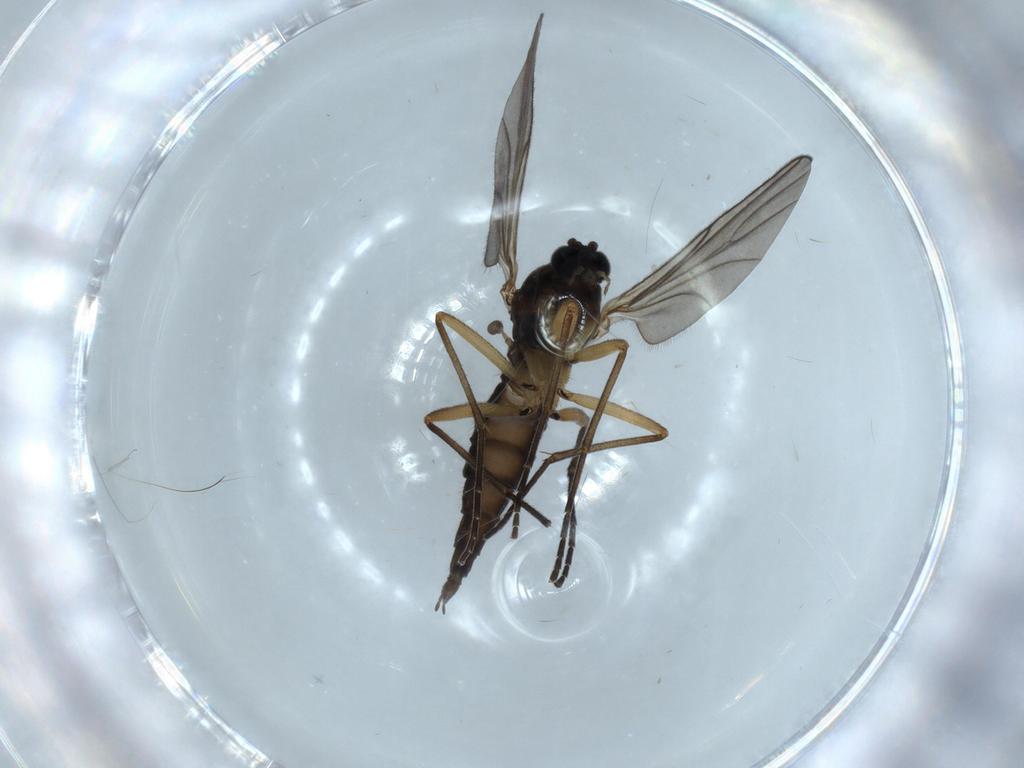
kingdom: Animalia
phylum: Arthropoda
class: Insecta
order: Diptera
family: Sciaridae
